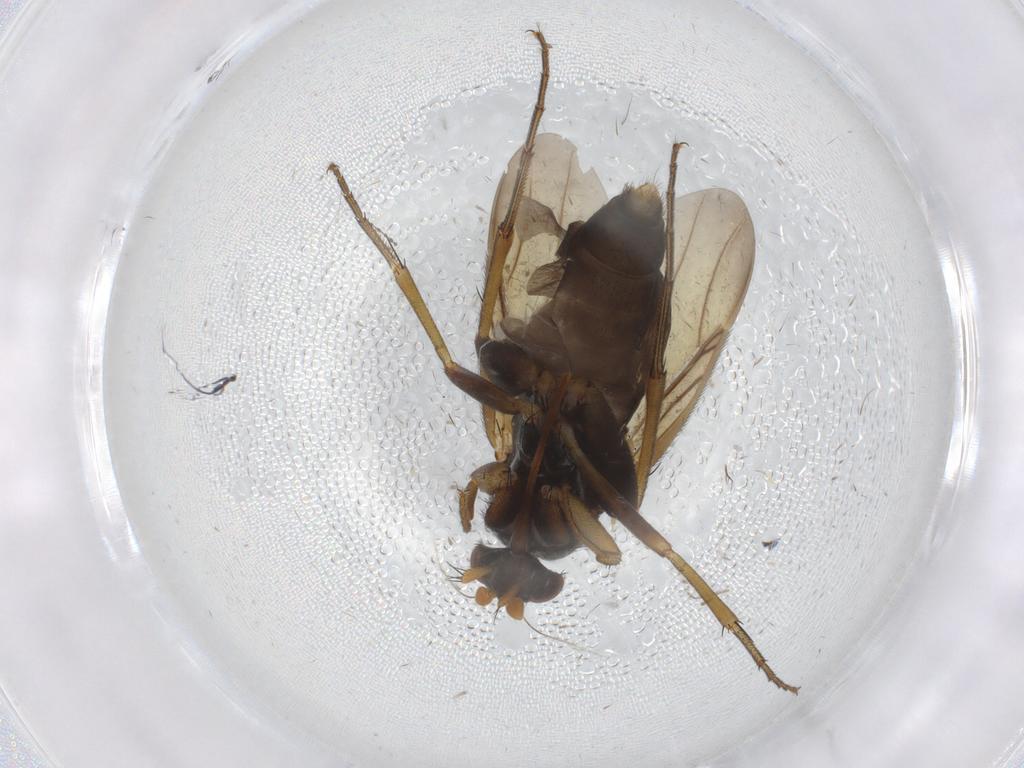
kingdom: Animalia
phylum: Arthropoda
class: Insecta
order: Diptera
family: Phoridae
